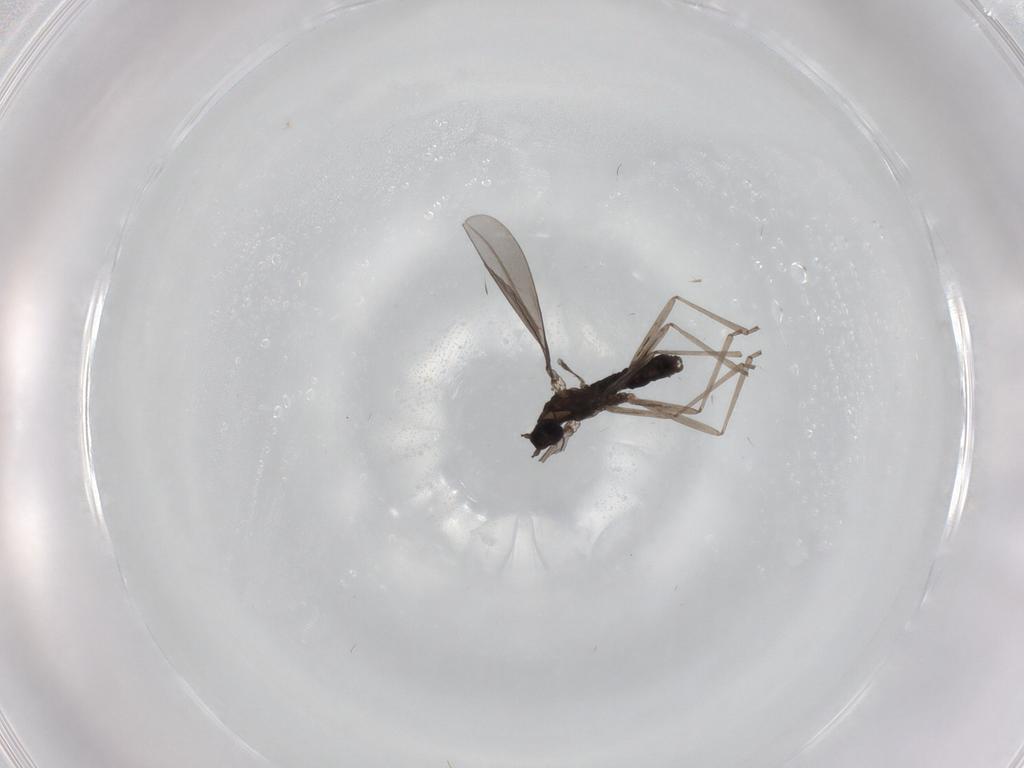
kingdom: Animalia
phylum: Arthropoda
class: Insecta
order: Diptera
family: Cecidomyiidae
